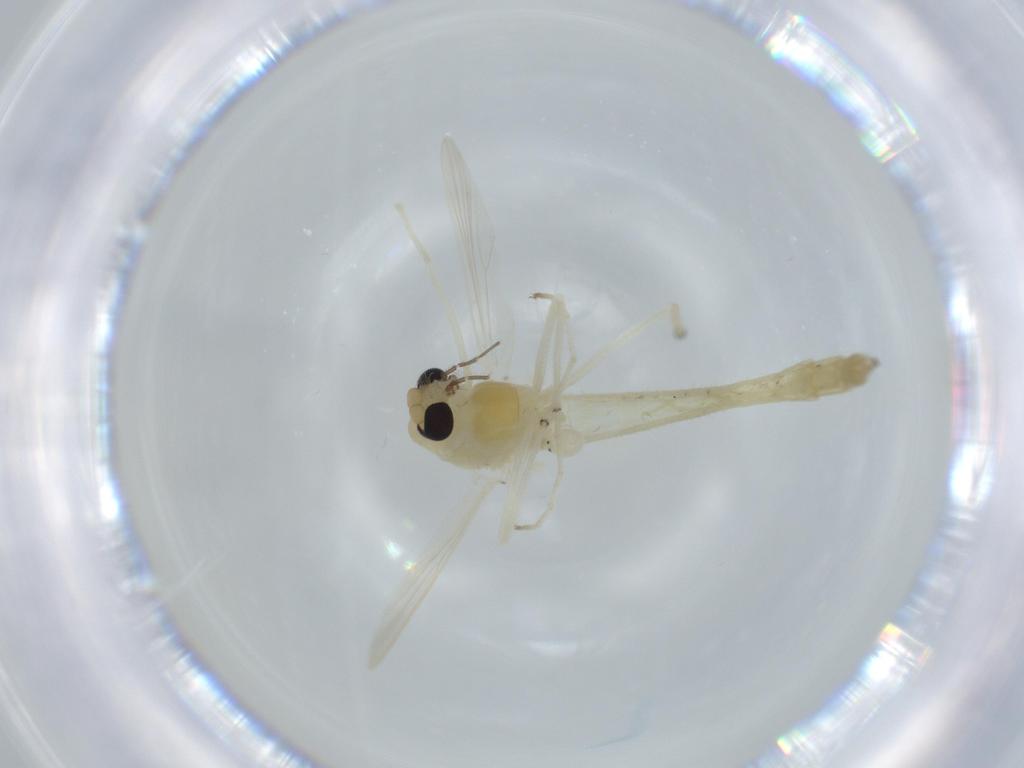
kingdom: Animalia
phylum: Arthropoda
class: Insecta
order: Diptera
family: Chironomidae
